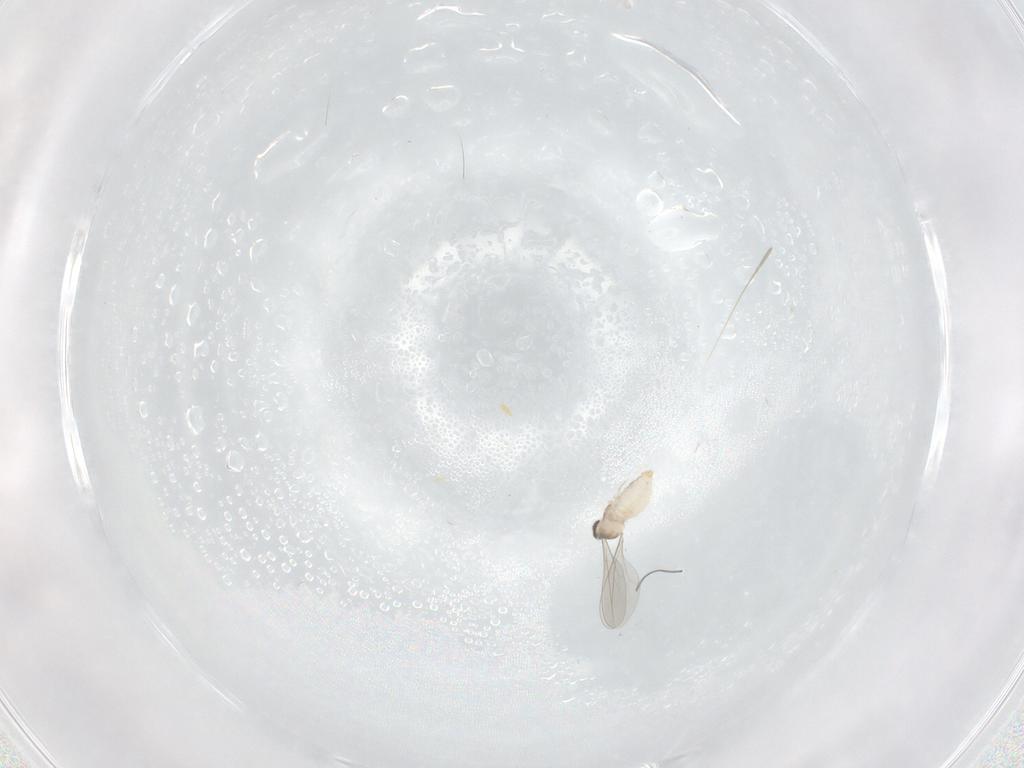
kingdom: Animalia
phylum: Arthropoda
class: Insecta
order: Diptera
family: Cecidomyiidae
